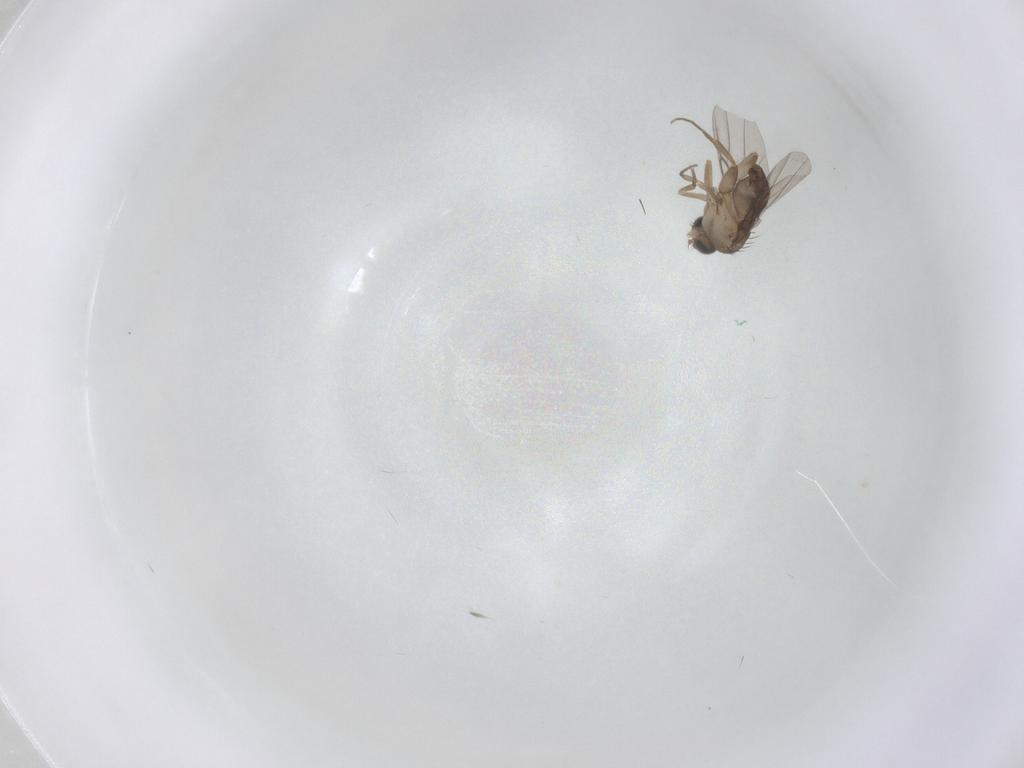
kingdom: Animalia
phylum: Arthropoda
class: Insecta
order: Diptera
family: Phoridae
